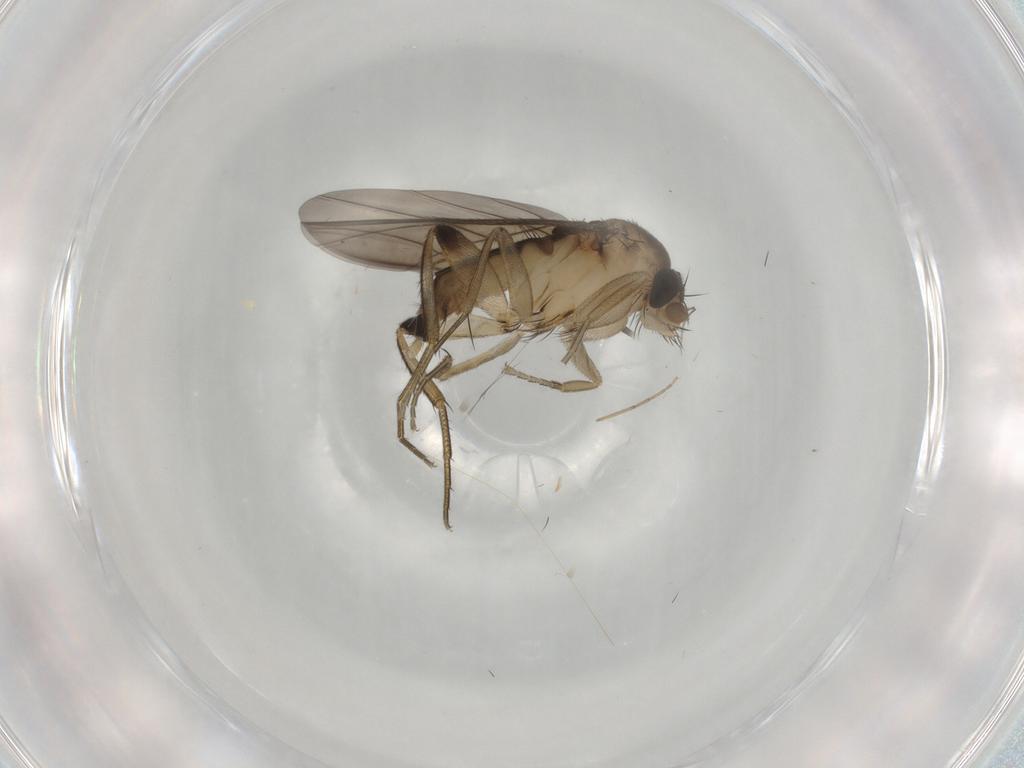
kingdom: Animalia
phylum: Arthropoda
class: Insecta
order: Diptera
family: Phoridae
